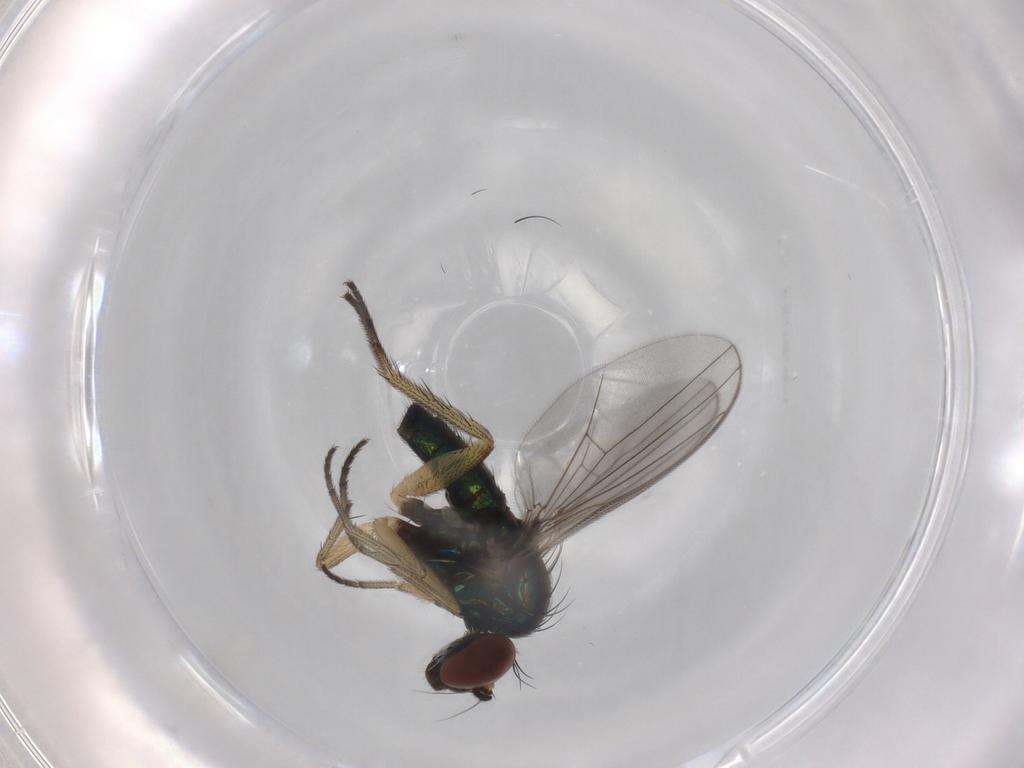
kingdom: Animalia
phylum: Arthropoda
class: Insecta
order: Diptera
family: Dolichopodidae
